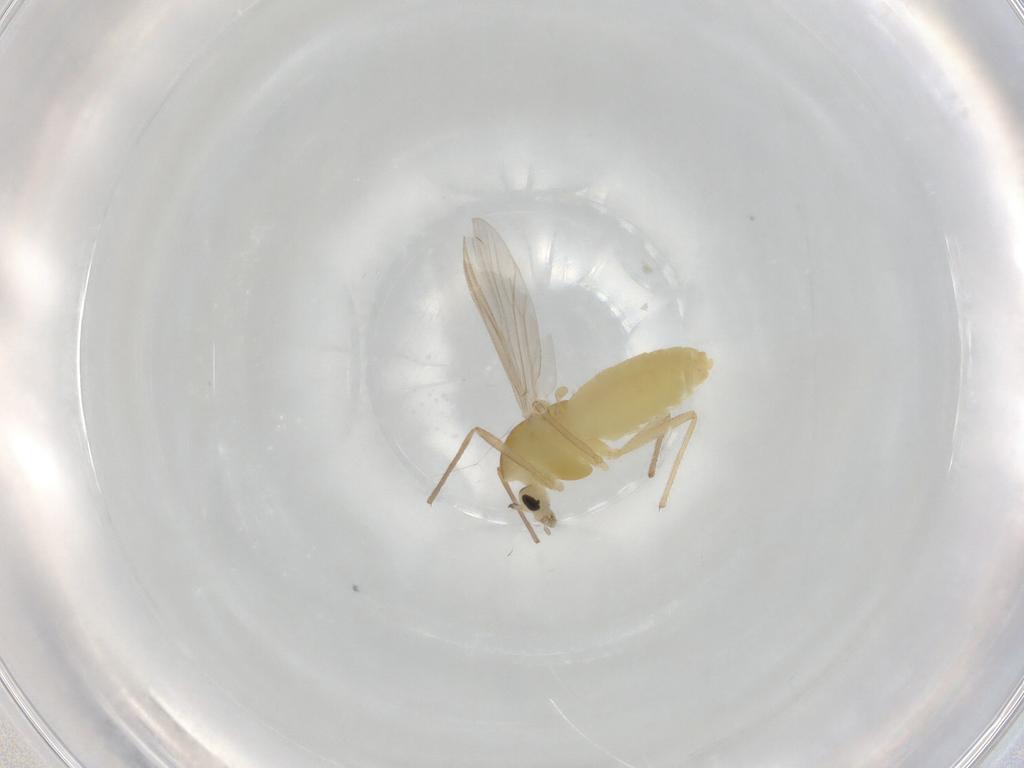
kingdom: Animalia
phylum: Arthropoda
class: Insecta
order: Diptera
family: Chironomidae
